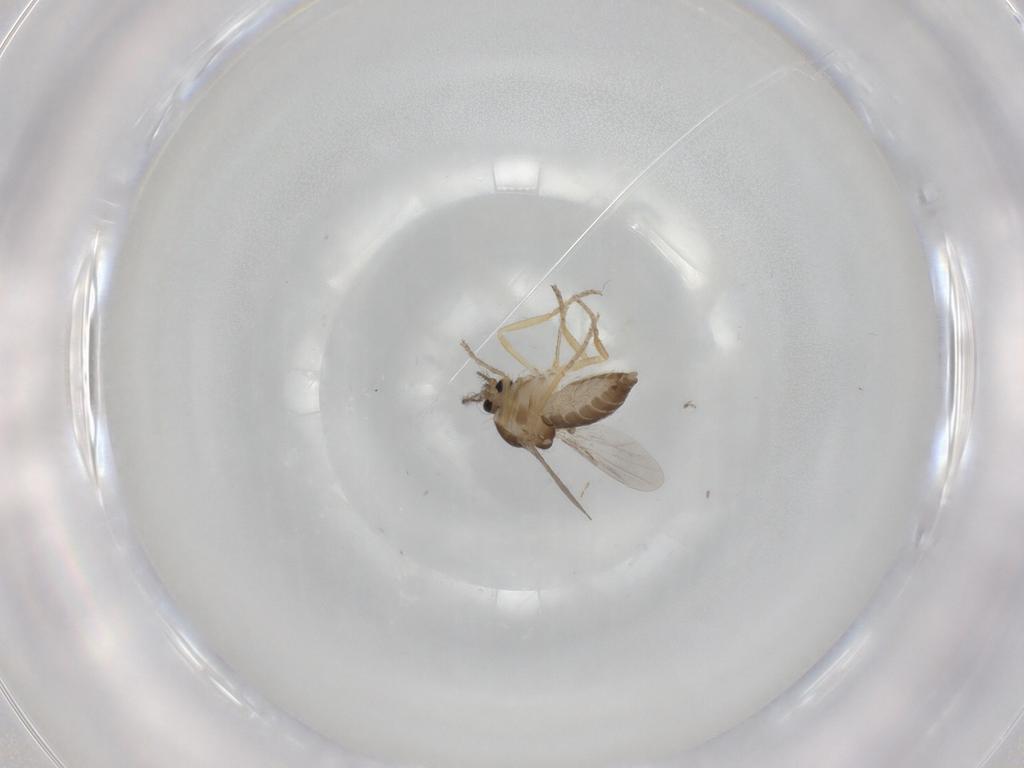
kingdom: Animalia
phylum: Arthropoda
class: Insecta
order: Diptera
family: Ceratopogonidae
